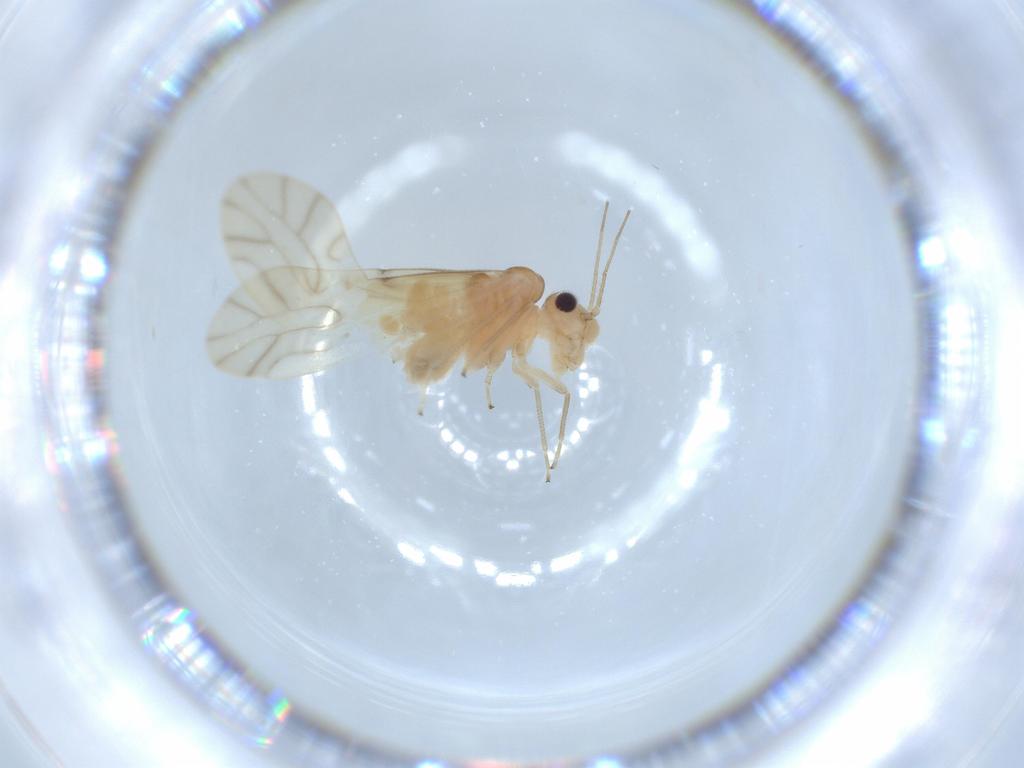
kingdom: Animalia
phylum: Arthropoda
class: Insecta
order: Psocodea
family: Caeciliusidae
